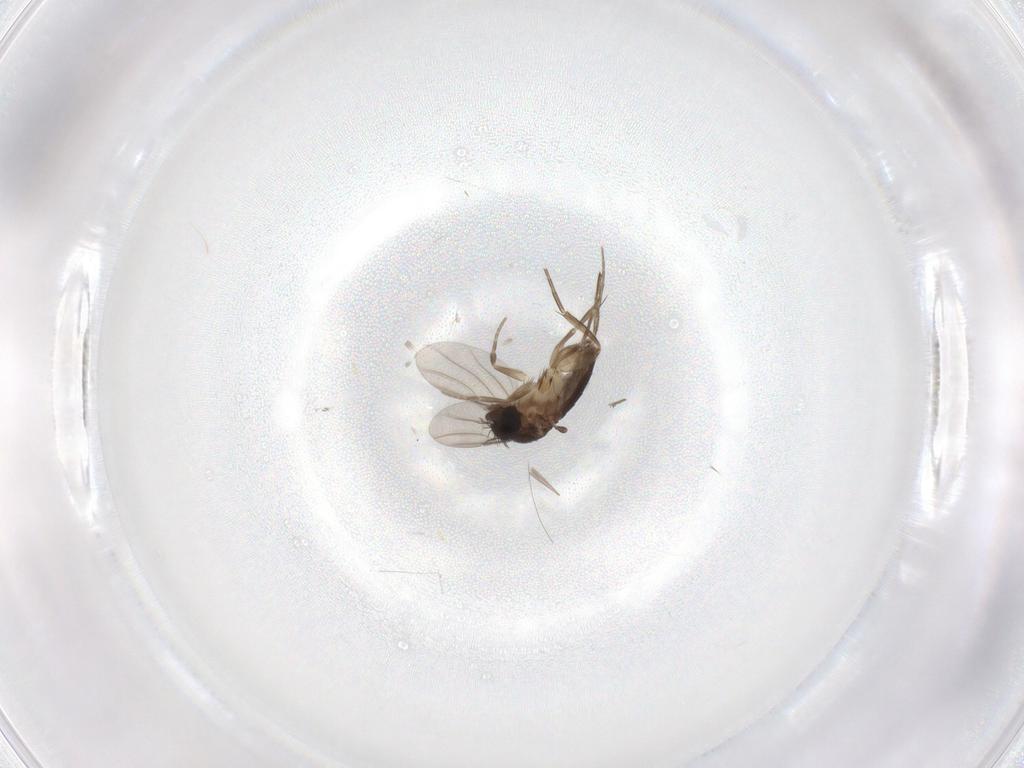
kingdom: Animalia
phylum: Arthropoda
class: Insecta
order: Diptera
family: Phoridae
